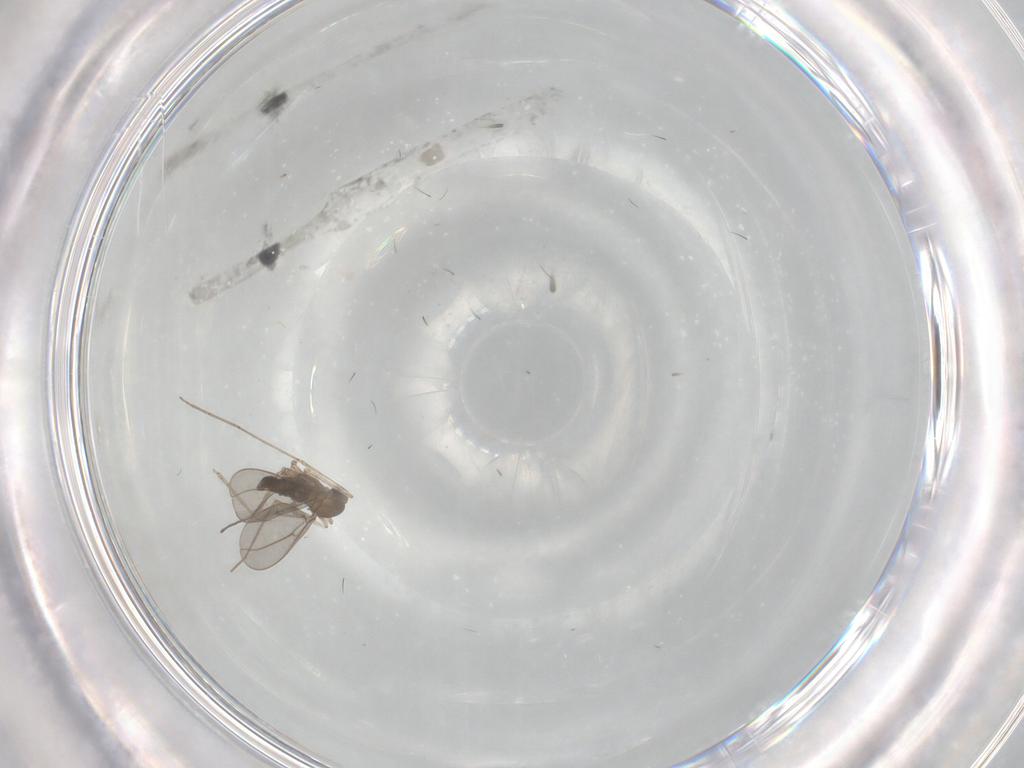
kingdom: Animalia
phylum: Arthropoda
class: Insecta
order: Diptera
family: Cecidomyiidae
